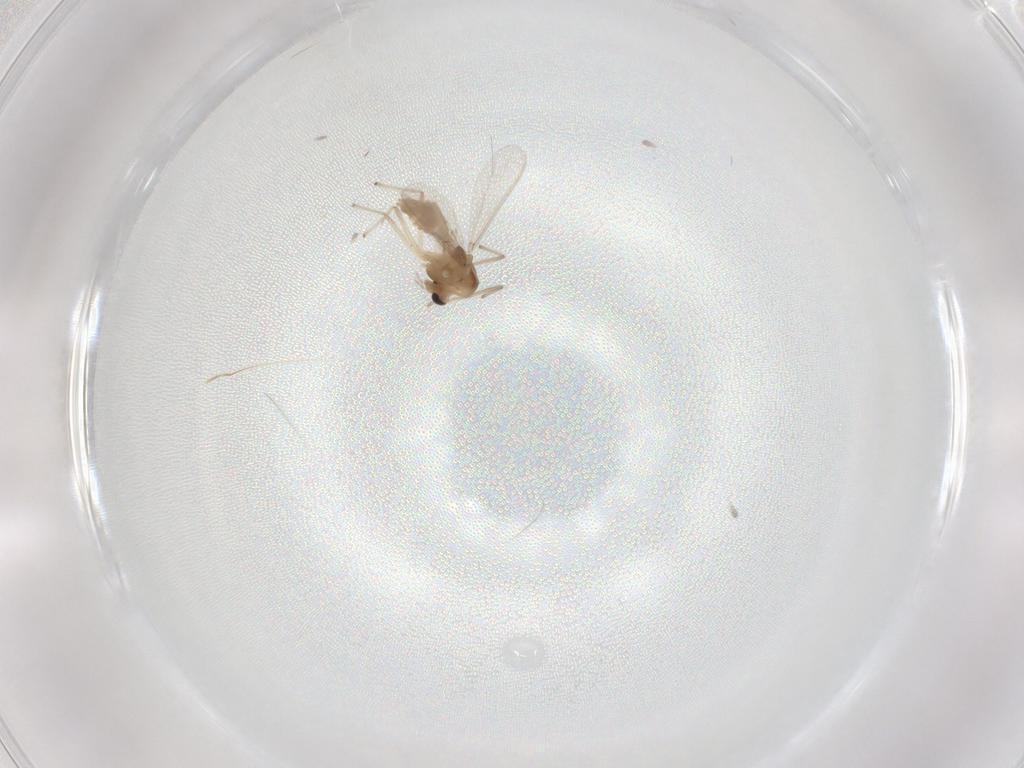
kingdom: Animalia
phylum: Arthropoda
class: Insecta
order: Diptera
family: Chironomidae
